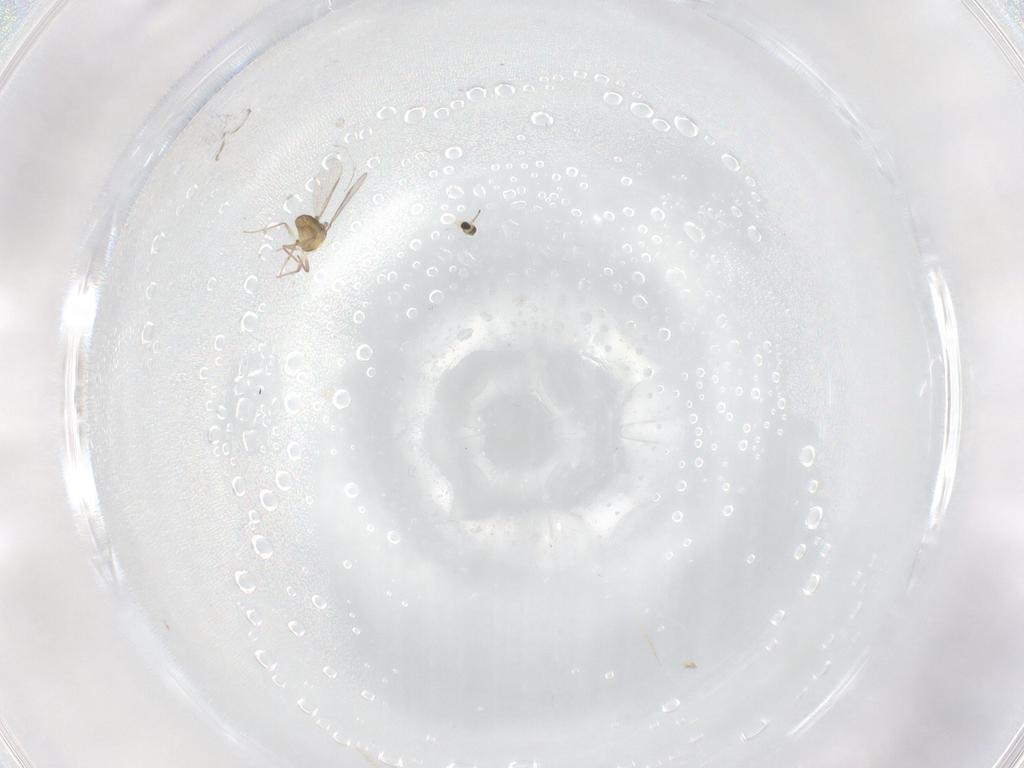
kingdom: Animalia
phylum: Arthropoda
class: Insecta
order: Diptera
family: Chironomidae
